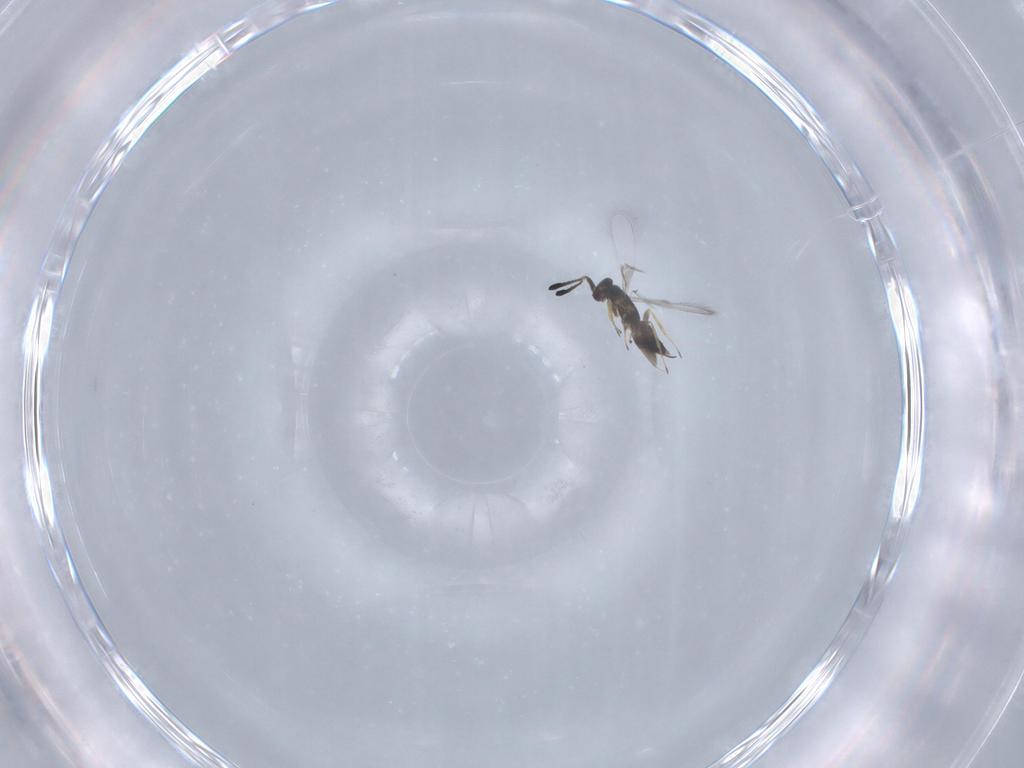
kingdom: Animalia
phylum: Arthropoda
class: Insecta
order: Hymenoptera
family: Mymaridae
